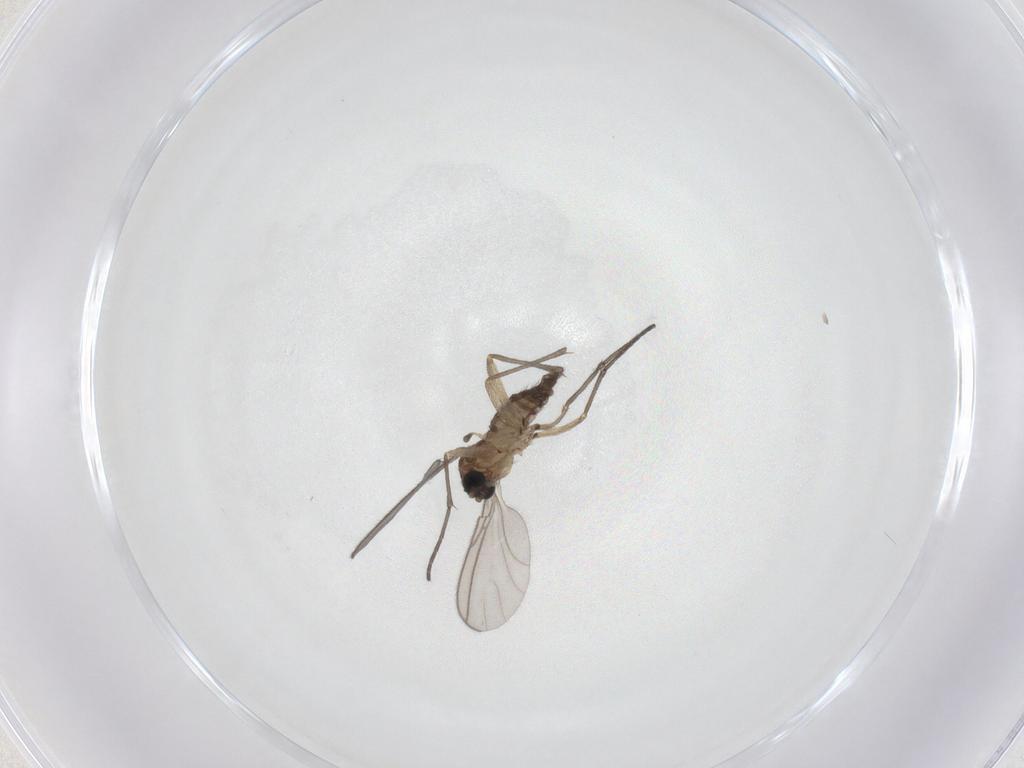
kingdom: Animalia
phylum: Arthropoda
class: Insecta
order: Diptera
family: Sciaridae
